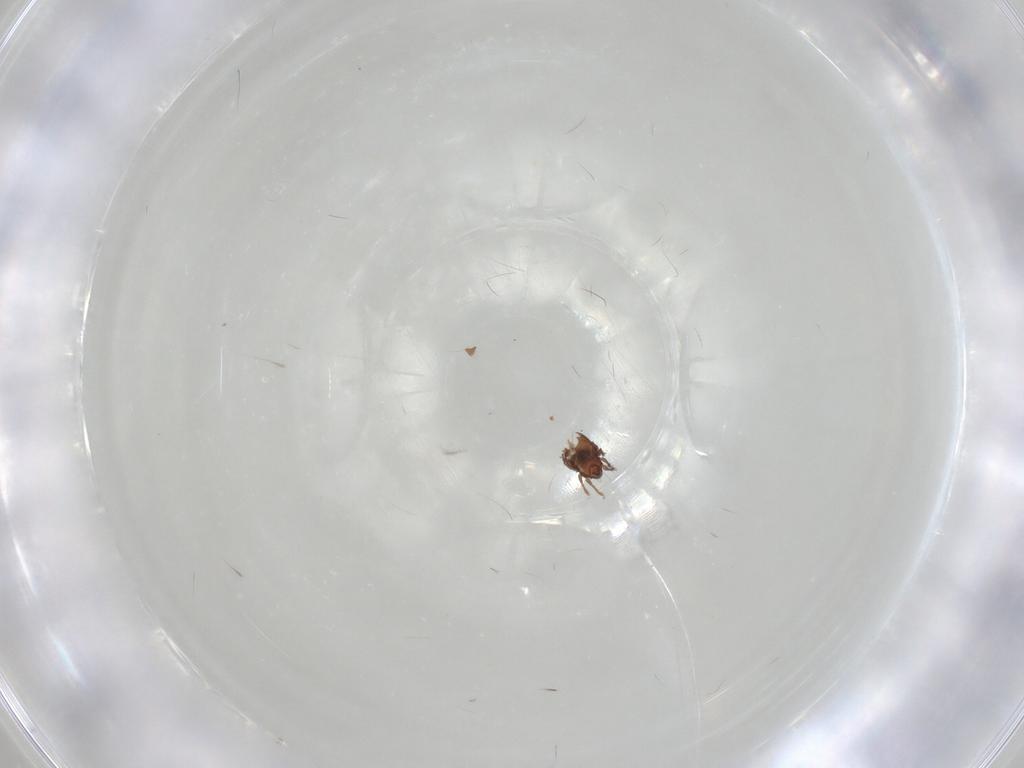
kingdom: Animalia
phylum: Arthropoda
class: Arachnida
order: Sarcoptiformes
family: Scheloribatidae
